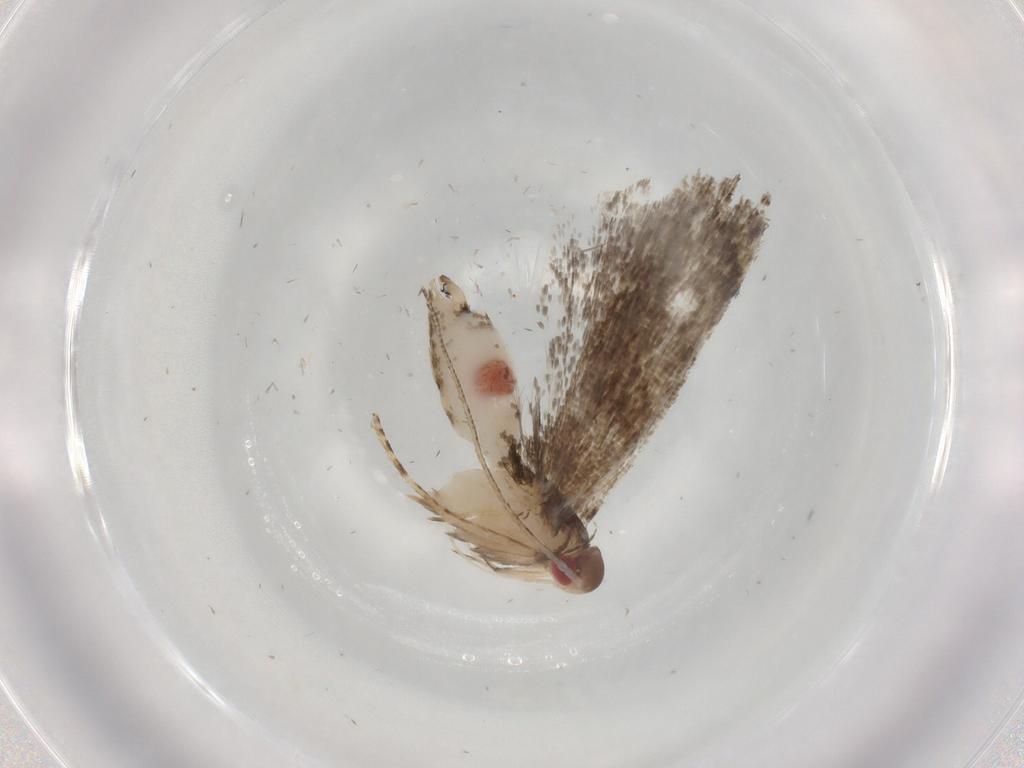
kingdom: Animalia
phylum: Arthropoda
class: Insecta
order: Lepidoptera
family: Gelechiidae
